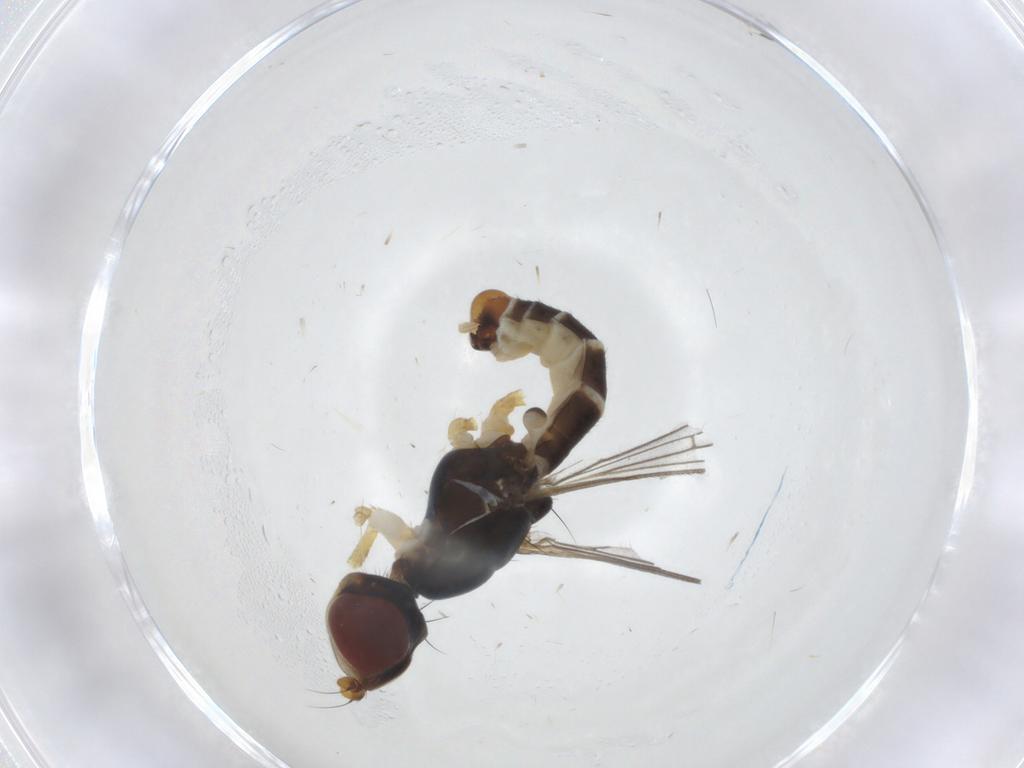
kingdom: Animalia
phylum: Arthropoda
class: Insecta
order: Diptera
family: Micropezidae
